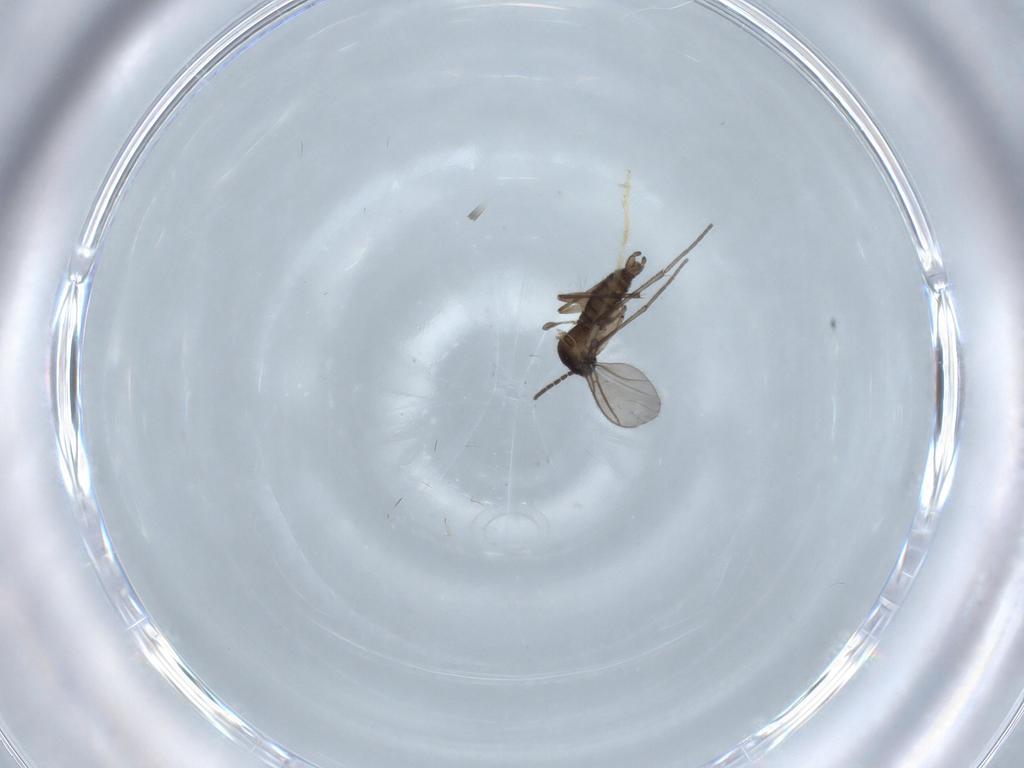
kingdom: Animalia
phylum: Arthropoda
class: Insecta
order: Diptera
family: Sciaridae
